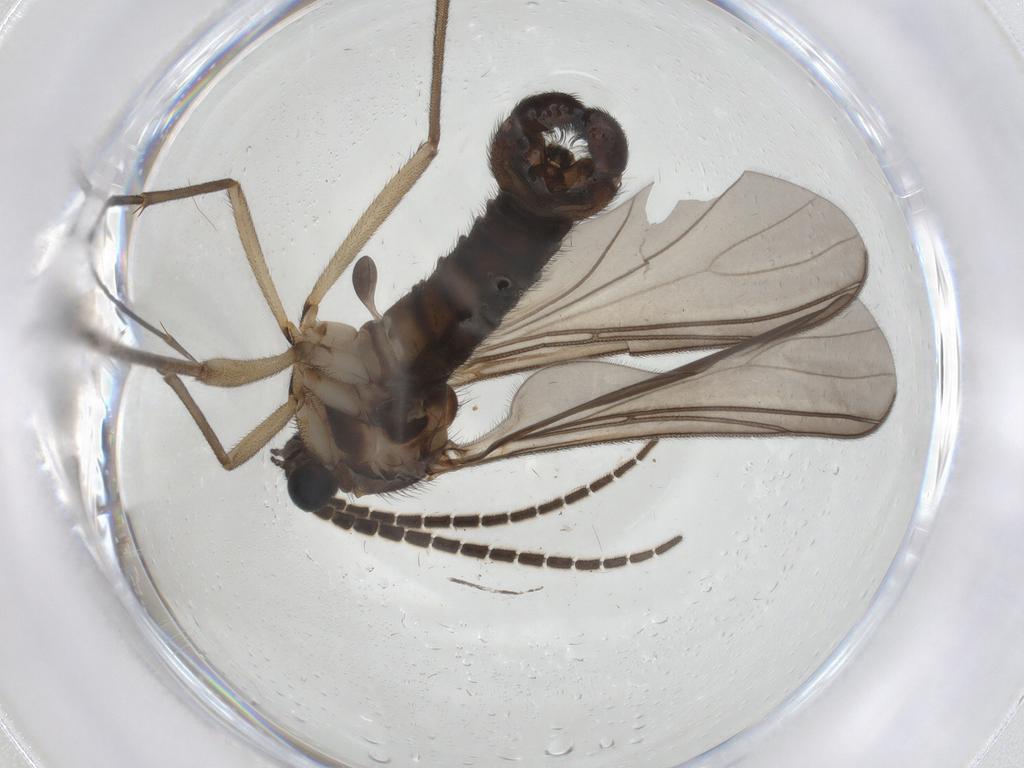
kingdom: Animalia
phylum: Arthropoda
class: Insecta
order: Diptera
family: Sciaridae
